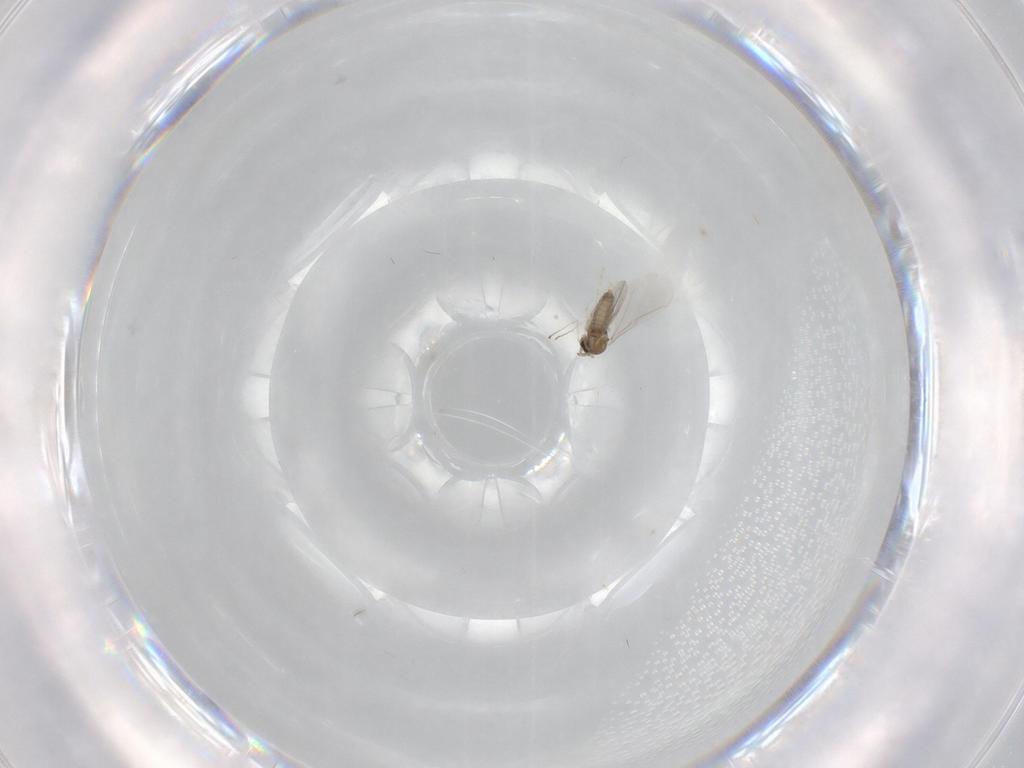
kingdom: Animalia
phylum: Arthropoda
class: Insecta
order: Diptera
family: Cecidomyiidae
